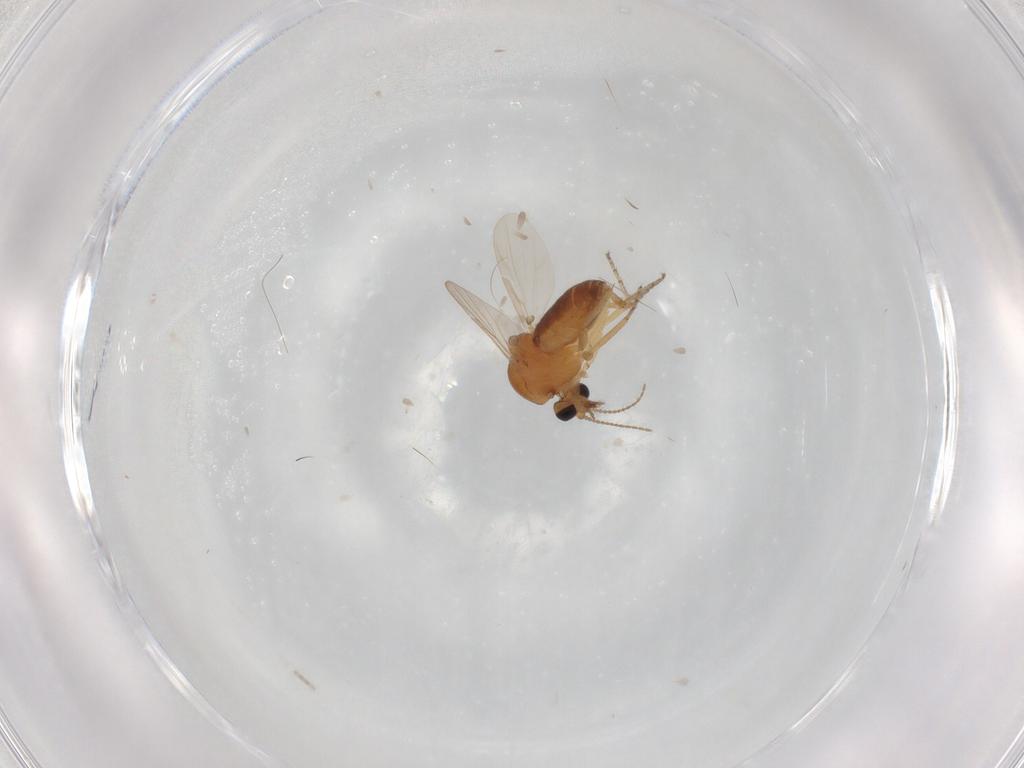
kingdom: Animalia
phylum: Arthropoda
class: Insecta
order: Diptera
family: Ceratopogonidae
